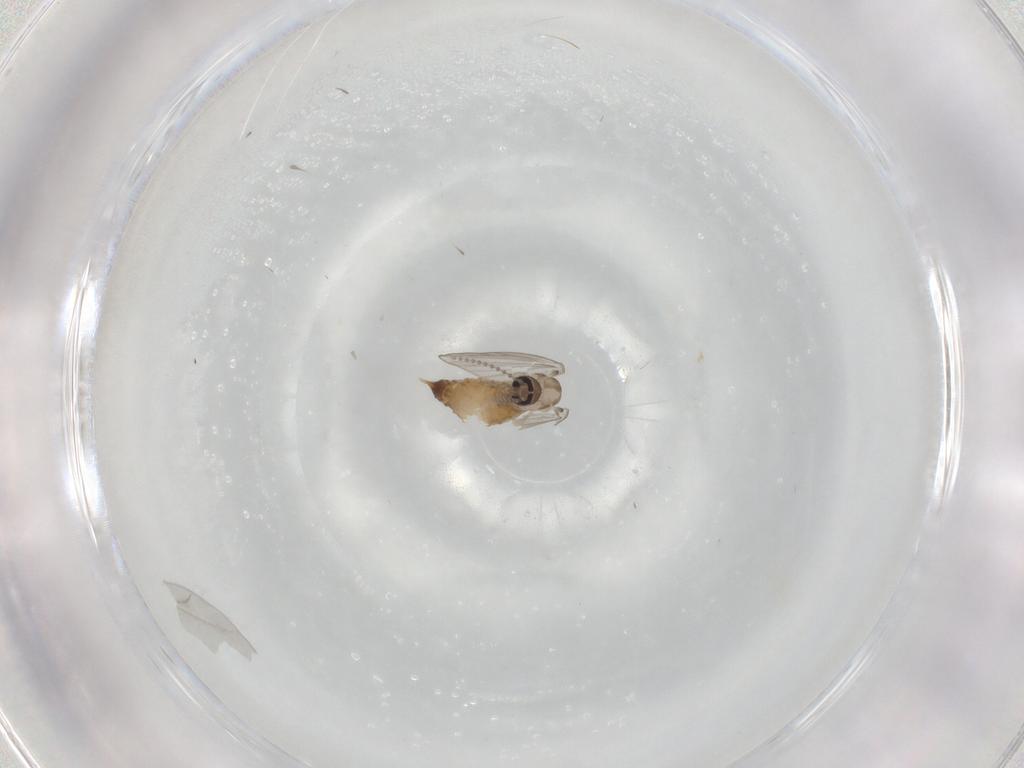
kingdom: Animalia
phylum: Arthropoda
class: Insecta
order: Diptera
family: Psychodidae
